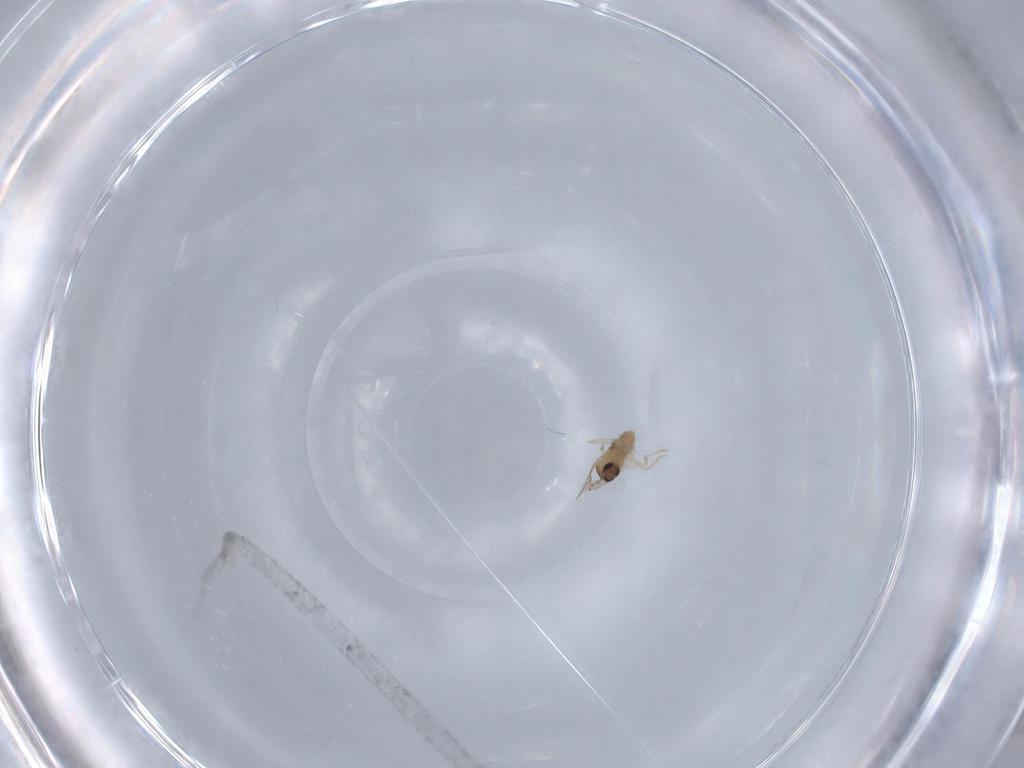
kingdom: Animalia
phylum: Arthropoda
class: Insecta
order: Diptera
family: Cecidomyiidae
